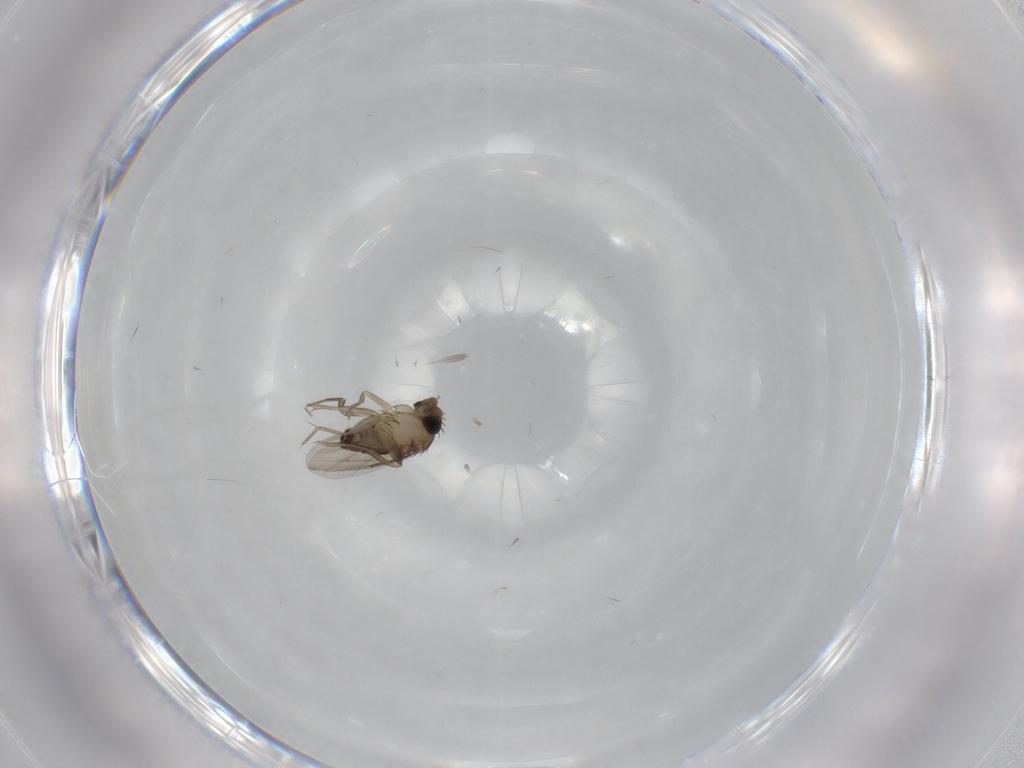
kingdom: Animalia
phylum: Arthropoda
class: Insecta
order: Diptera
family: Phoridae
